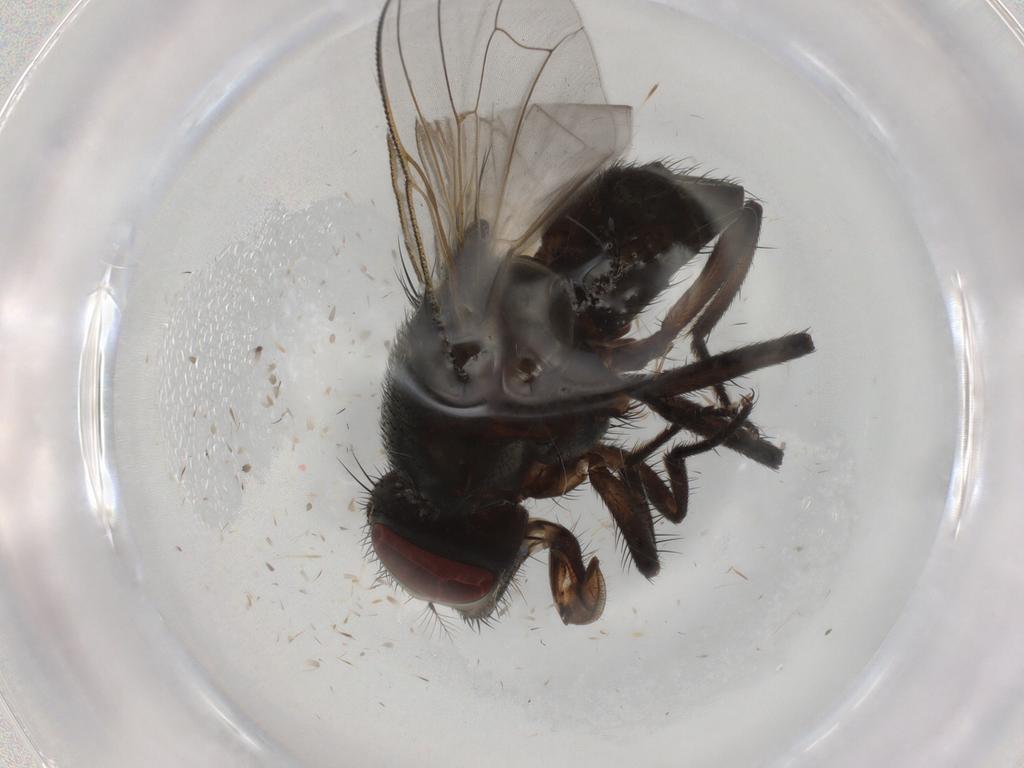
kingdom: Animalia
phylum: Arthropoda
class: Insecta
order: Diptera
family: Muscidae
